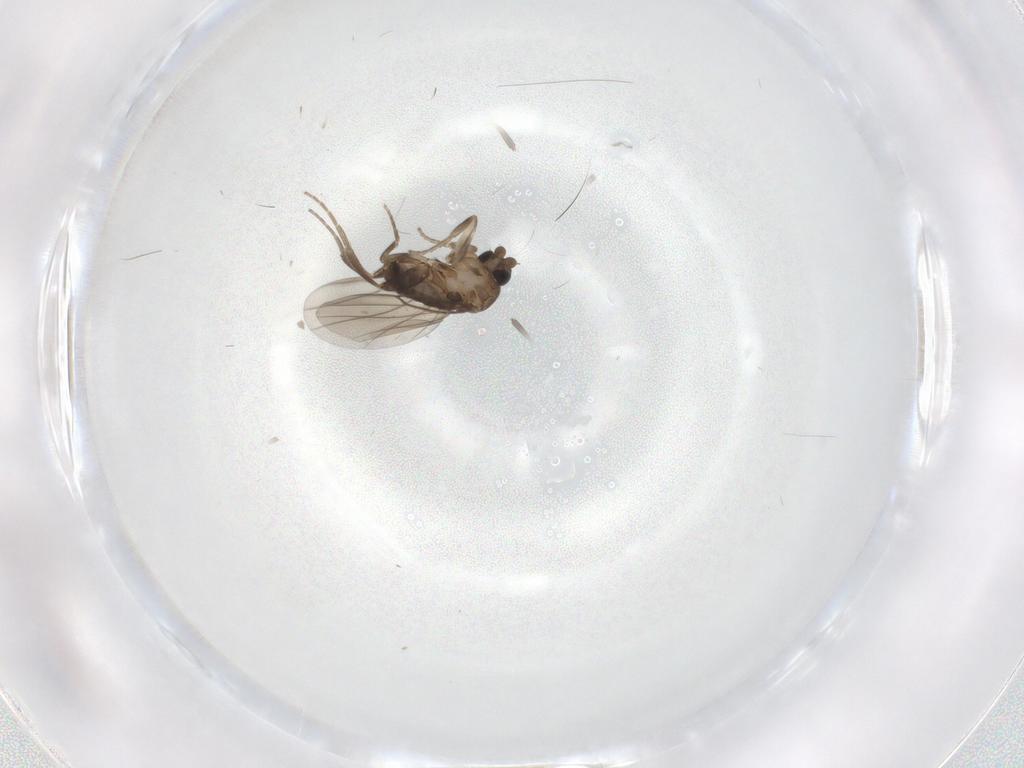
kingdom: Animalia
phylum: Arthropoda
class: Insecta
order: Diptera
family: Phoridae
